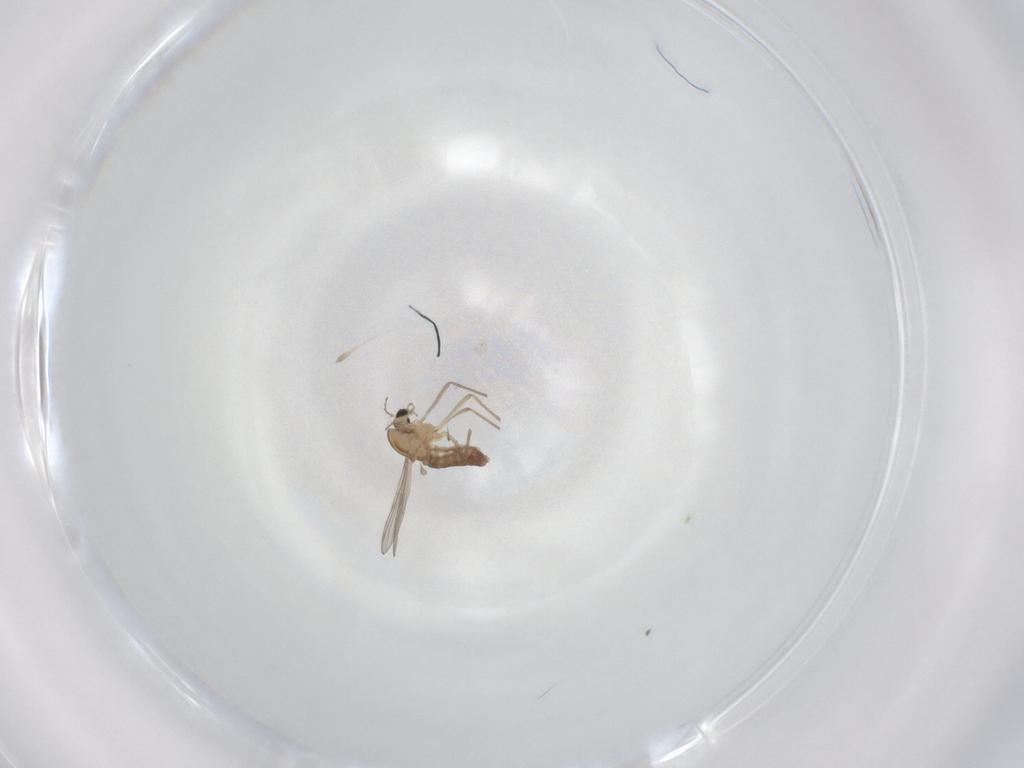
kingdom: Animalia
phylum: Arthropoda
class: Insecta
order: Diptera
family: Chironomidae
